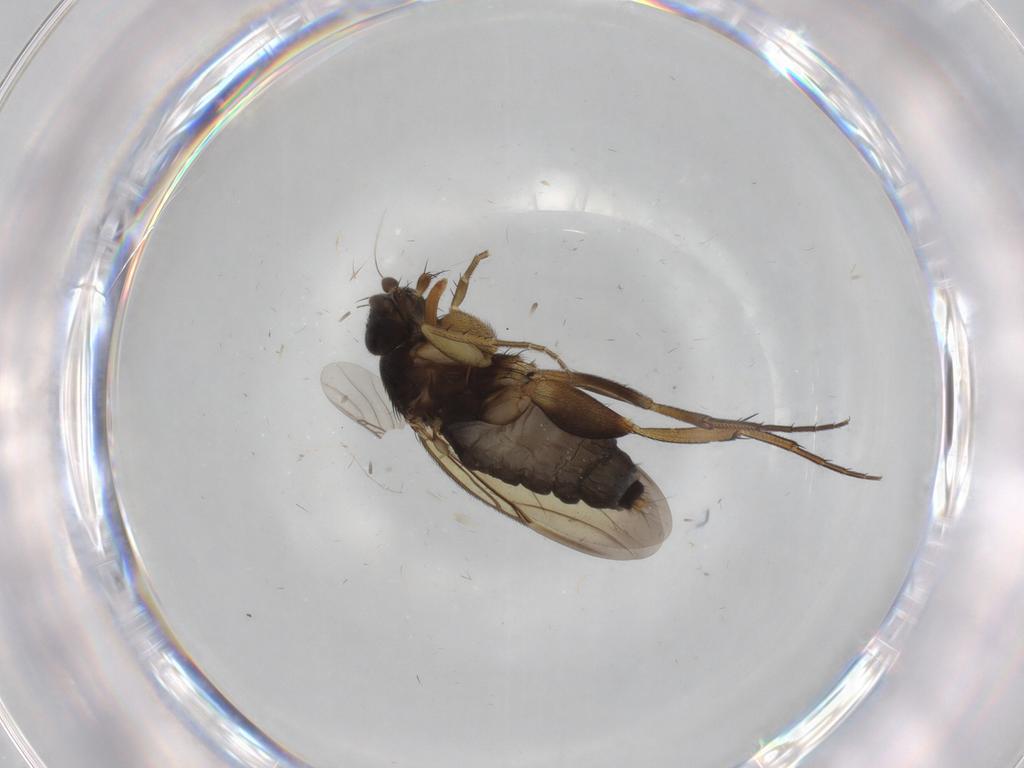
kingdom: Animalia
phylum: Arthropoda
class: Insecta
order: Diptera
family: Phoridae
